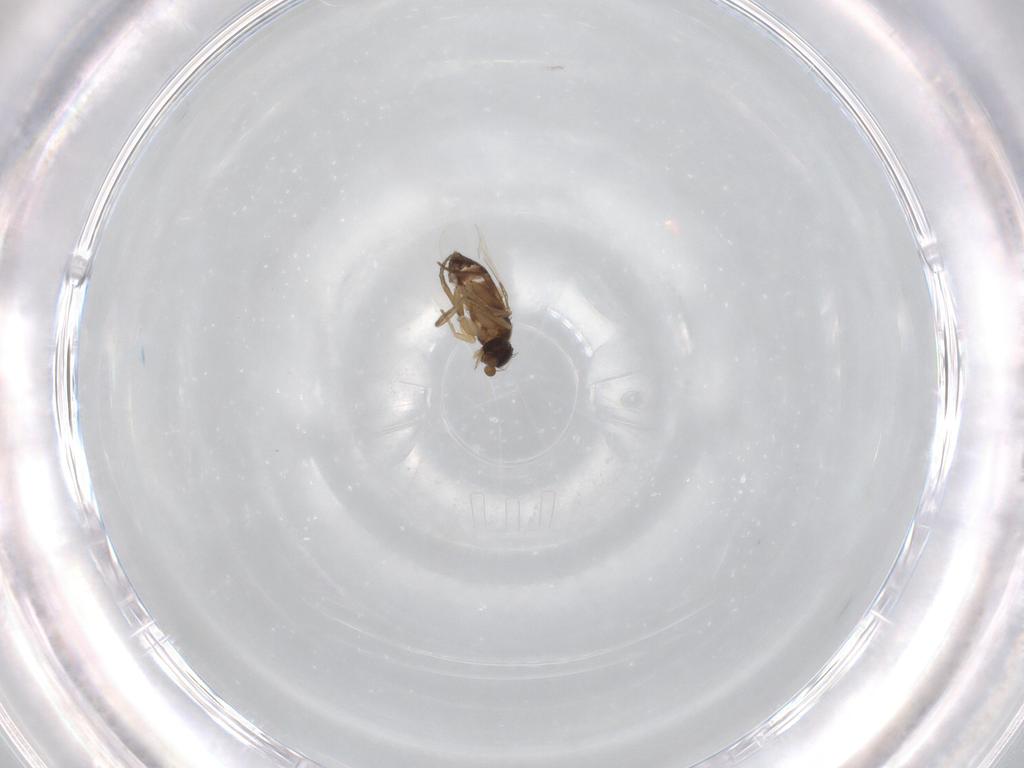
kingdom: Animalia
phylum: Arthropoda
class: Insecta
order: Diptera
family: Phoridae
